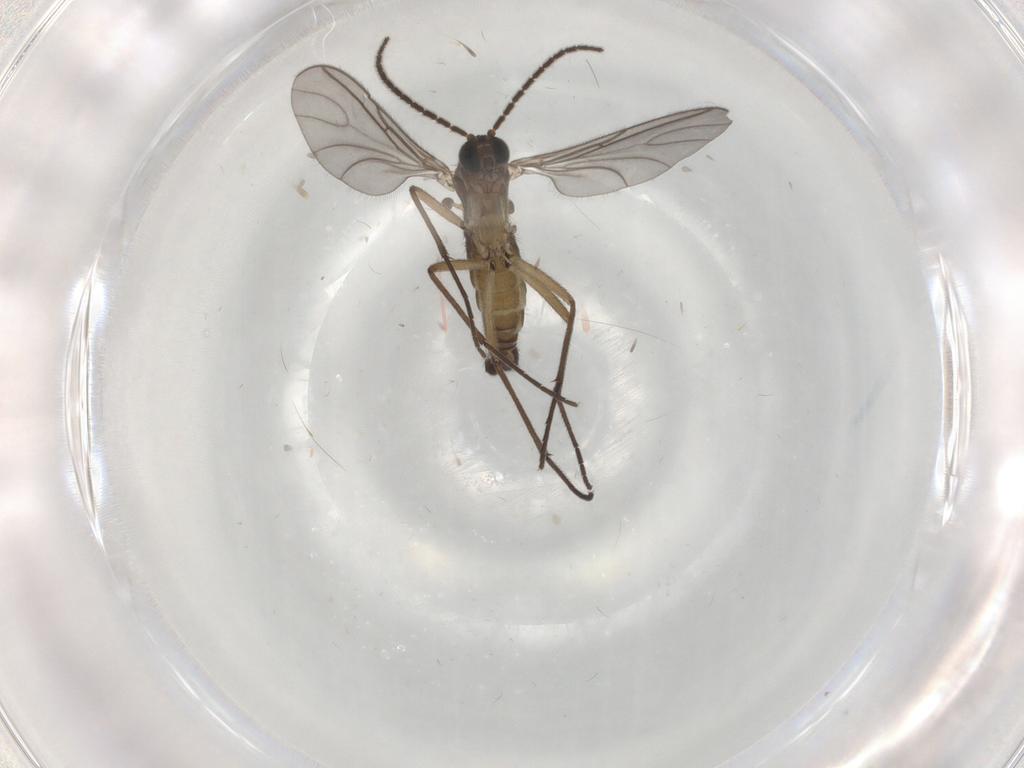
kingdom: Animalia
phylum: Arthropoda
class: Insecta
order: Diptera
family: Sciaridae
